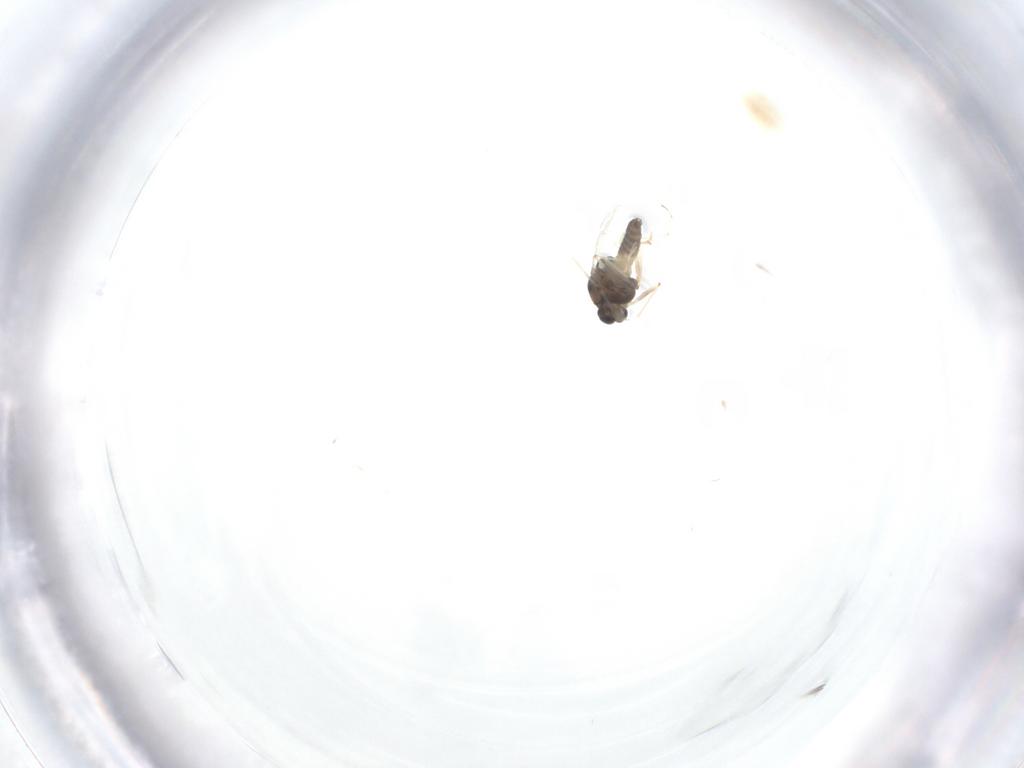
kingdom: Animalia
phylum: Arthropoda
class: Insecta
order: Diptera
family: Chironomidae
